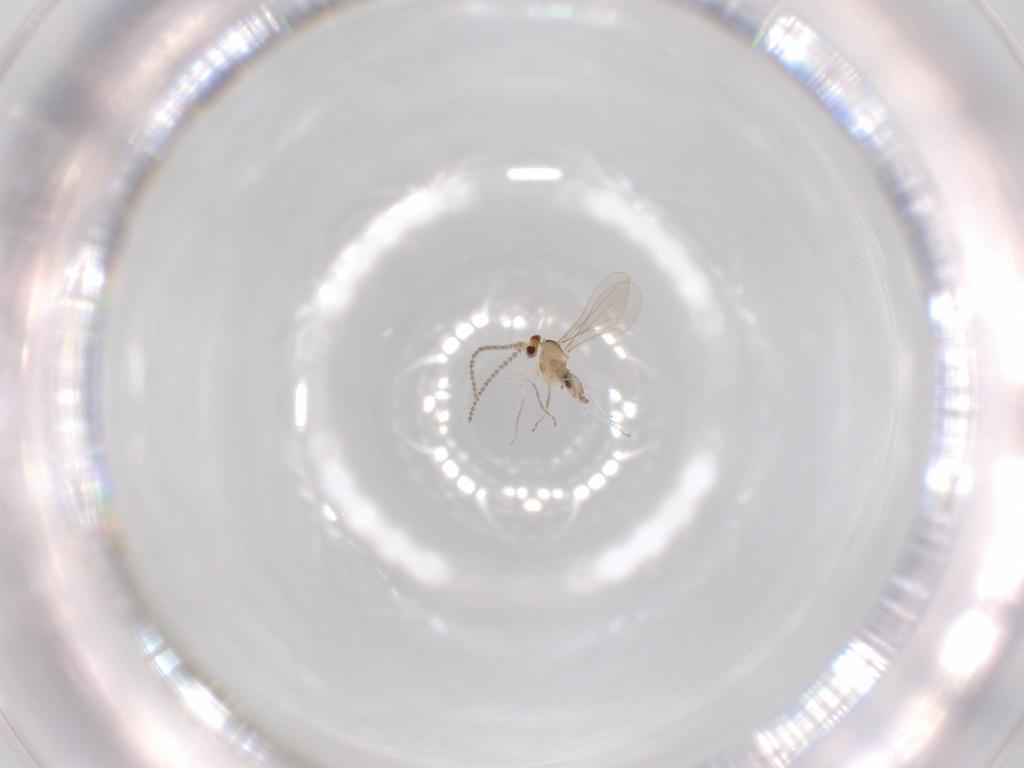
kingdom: Animalia
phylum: Arthropoda
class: Insecta
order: Diptera
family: Cecidomyiidae
